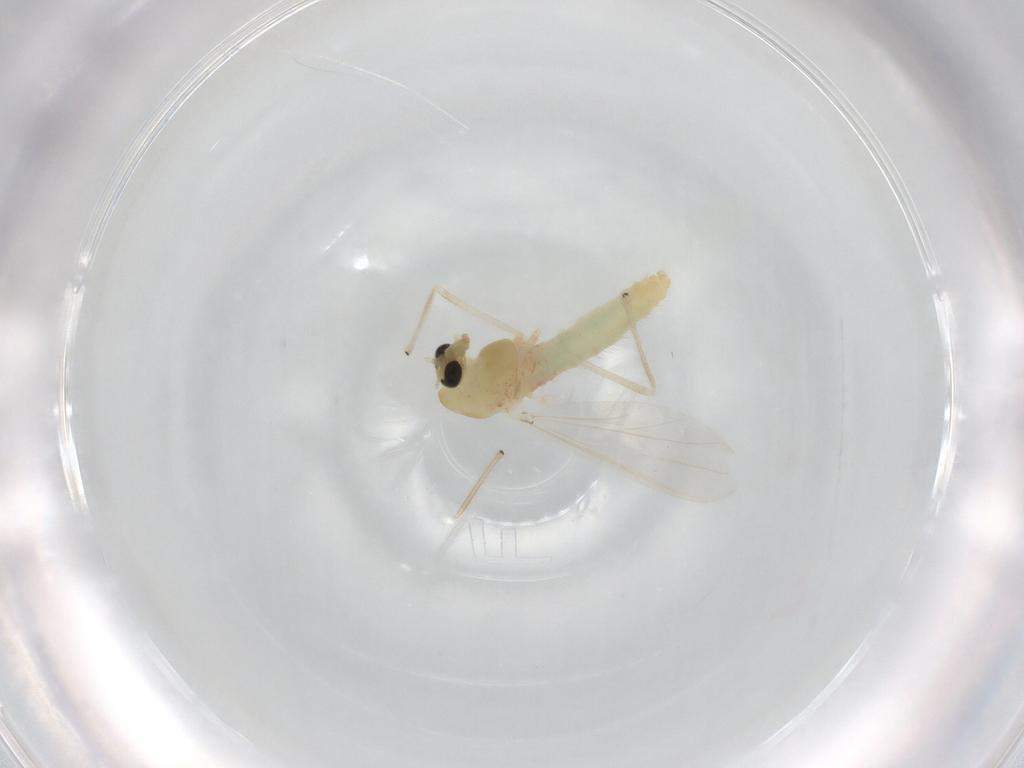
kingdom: Animalia
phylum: Arthropoda
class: Insecta
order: Diptera
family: Chironomidae
